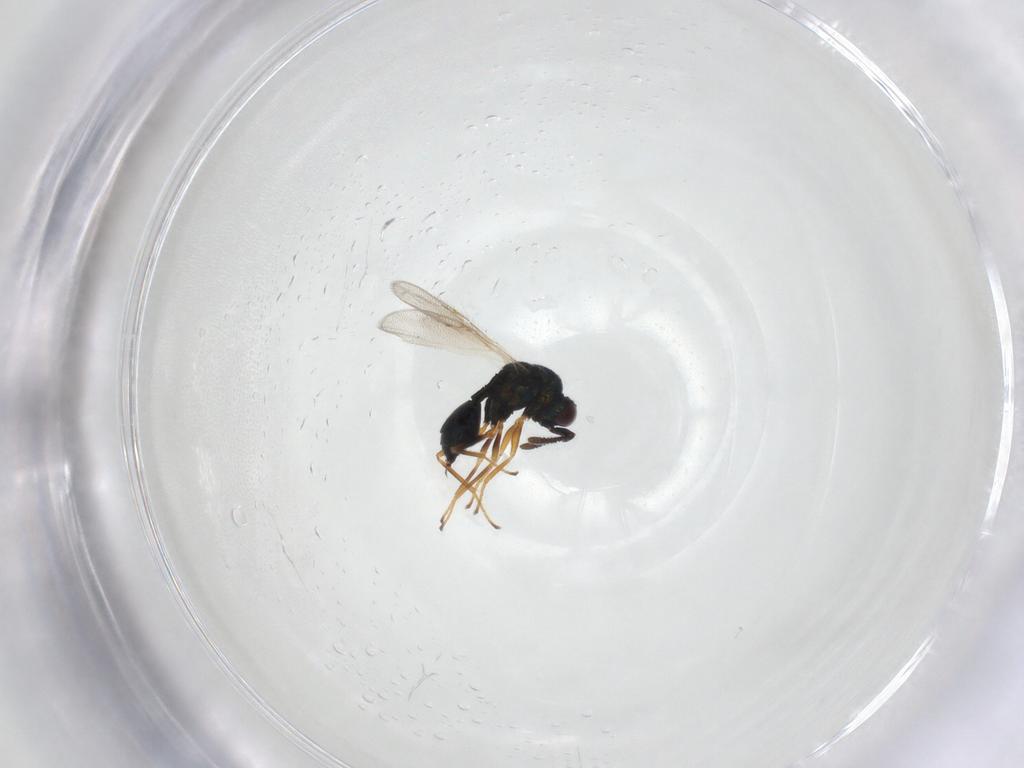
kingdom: Animalia
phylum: Arthropoda
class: Insecta
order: Hymenoptera
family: Chalcidoidea_incertae_sedis
